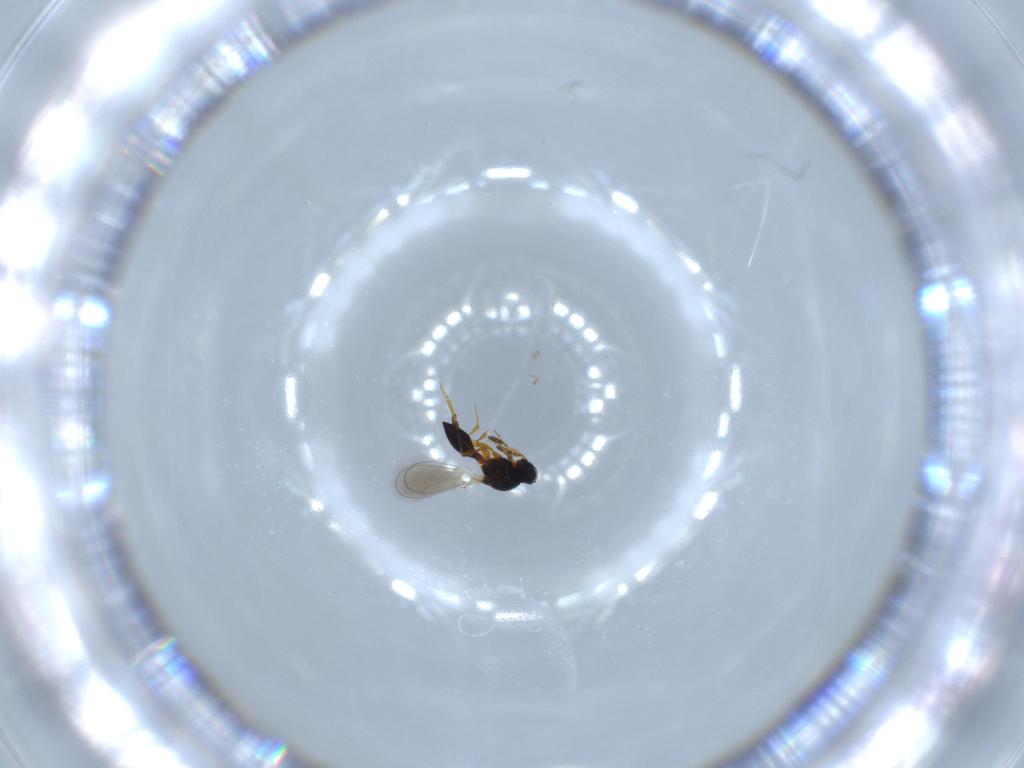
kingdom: Animalia
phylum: Arthropoda
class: Insecta
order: Hymenoptera
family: Platygastridae
